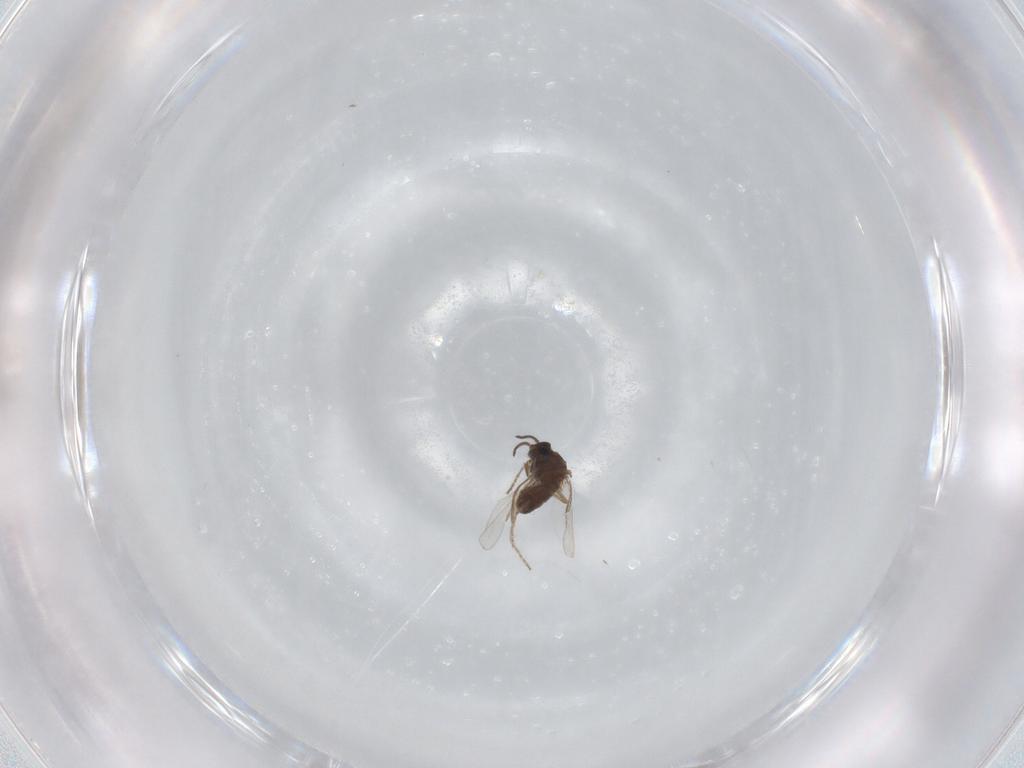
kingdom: Animalia
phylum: Arthropoda
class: Insecta
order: Diptera
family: Ceratopogonidae
